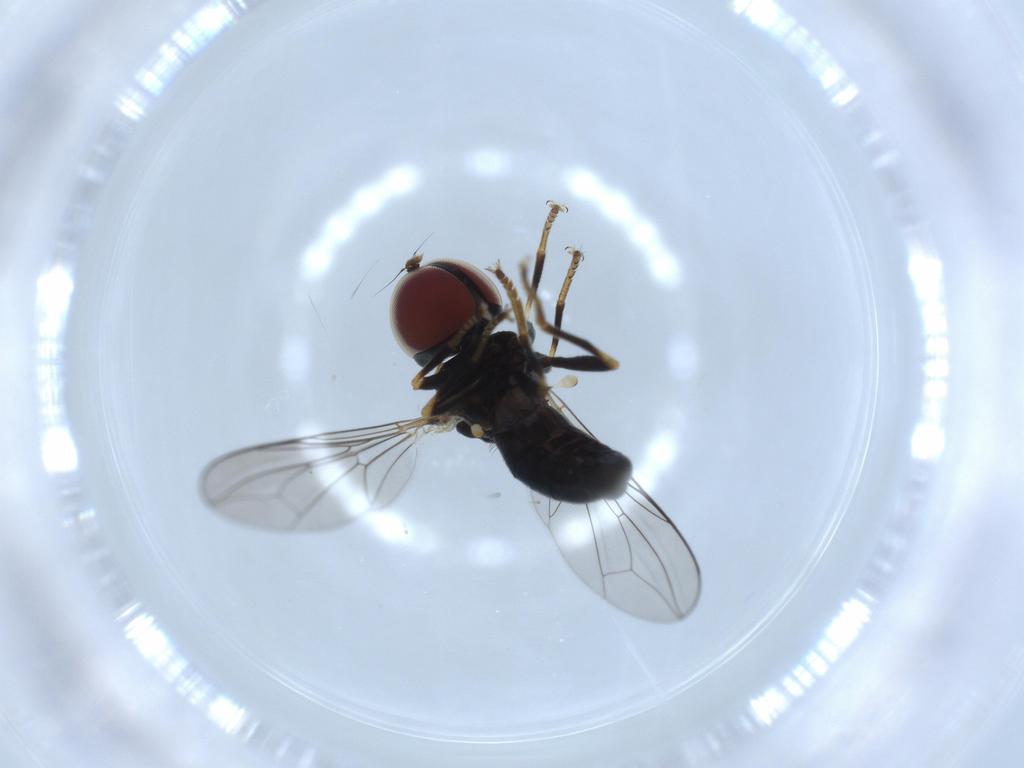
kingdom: Animalia
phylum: Arthropoda
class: Insecta
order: Diptera
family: Pipunculidae
